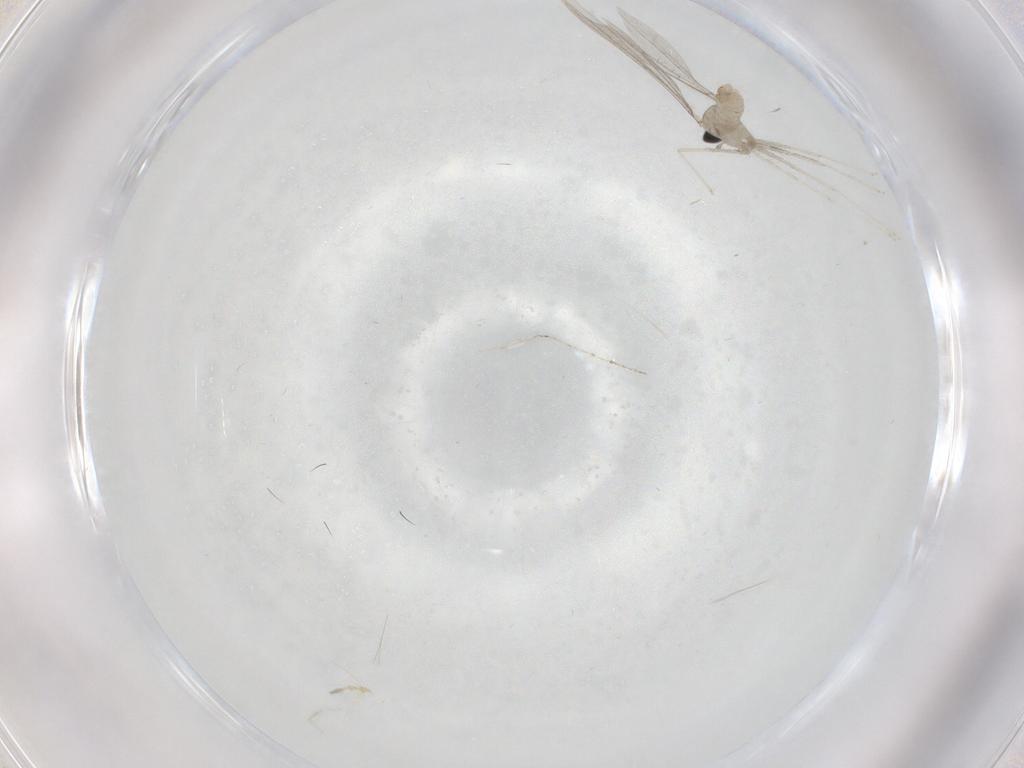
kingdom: Animalia
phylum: Arthropoda
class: Insecta
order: Diptera
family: Cecidomyiidae
